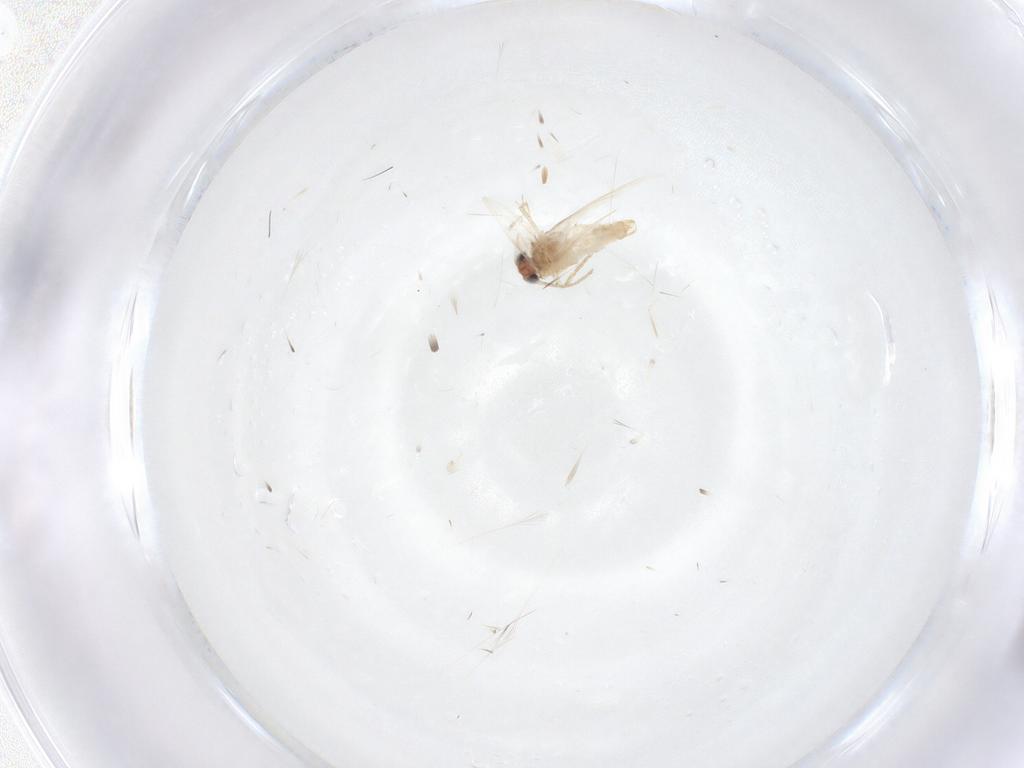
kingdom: Animalia
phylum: Arthropoda
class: Insecta
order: Lepidoptera
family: Nepticulidae
